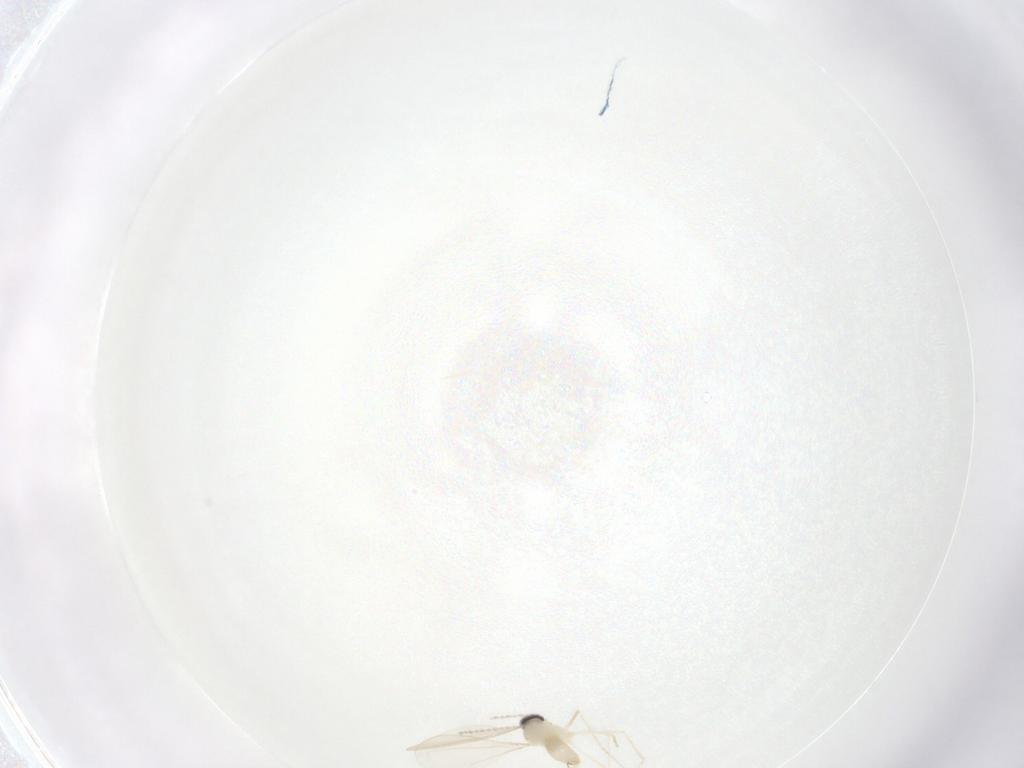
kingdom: Animalia
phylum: Arthropoda
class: Insecta
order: Diptera
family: Cecidomyiidae
